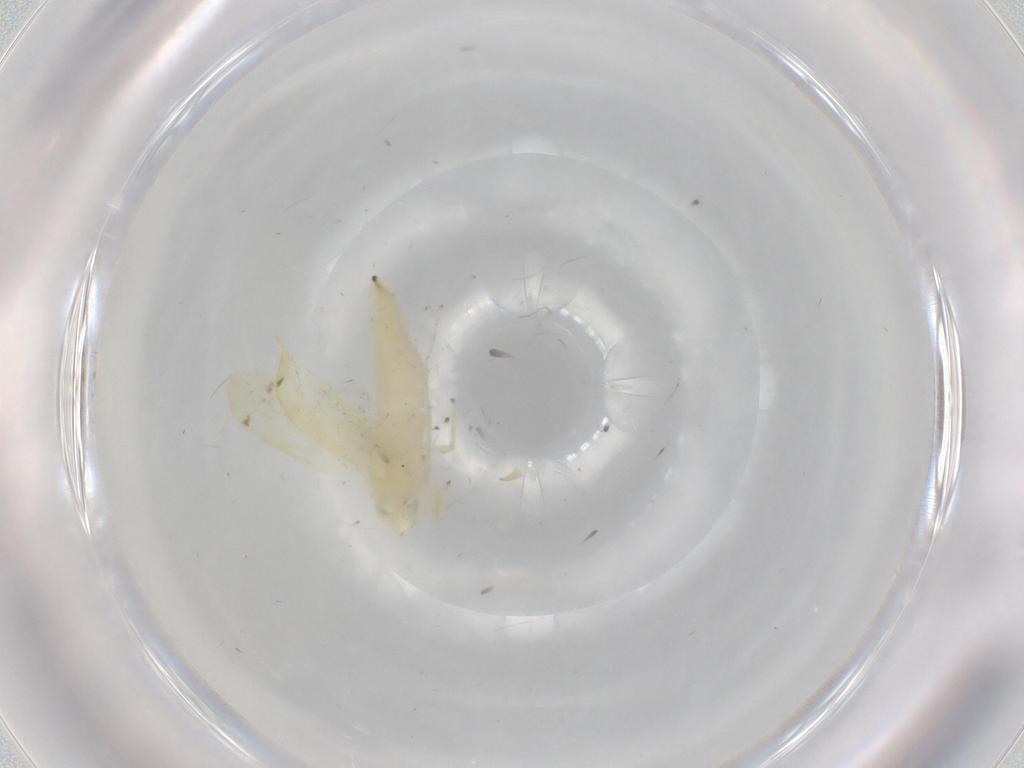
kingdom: Animalia
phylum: Arthropoda
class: Insecta
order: Hemiptera
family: Cicadellidae
